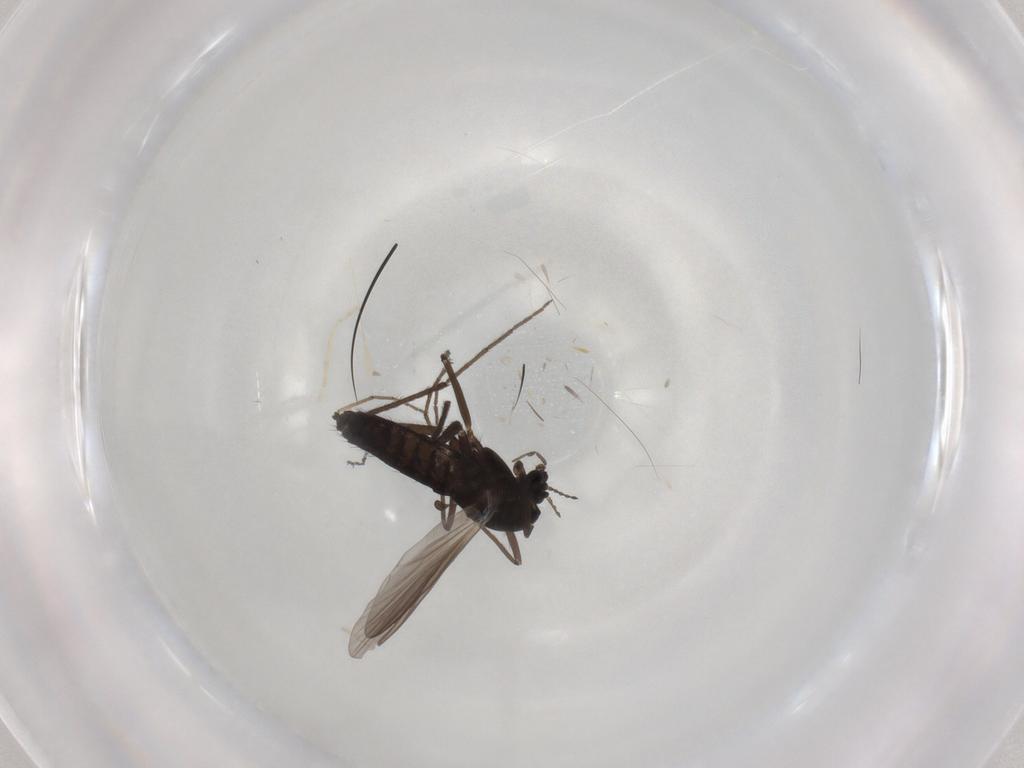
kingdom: Animalia
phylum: Arthropoda
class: Insecta
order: Diptera
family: Chironomidae
